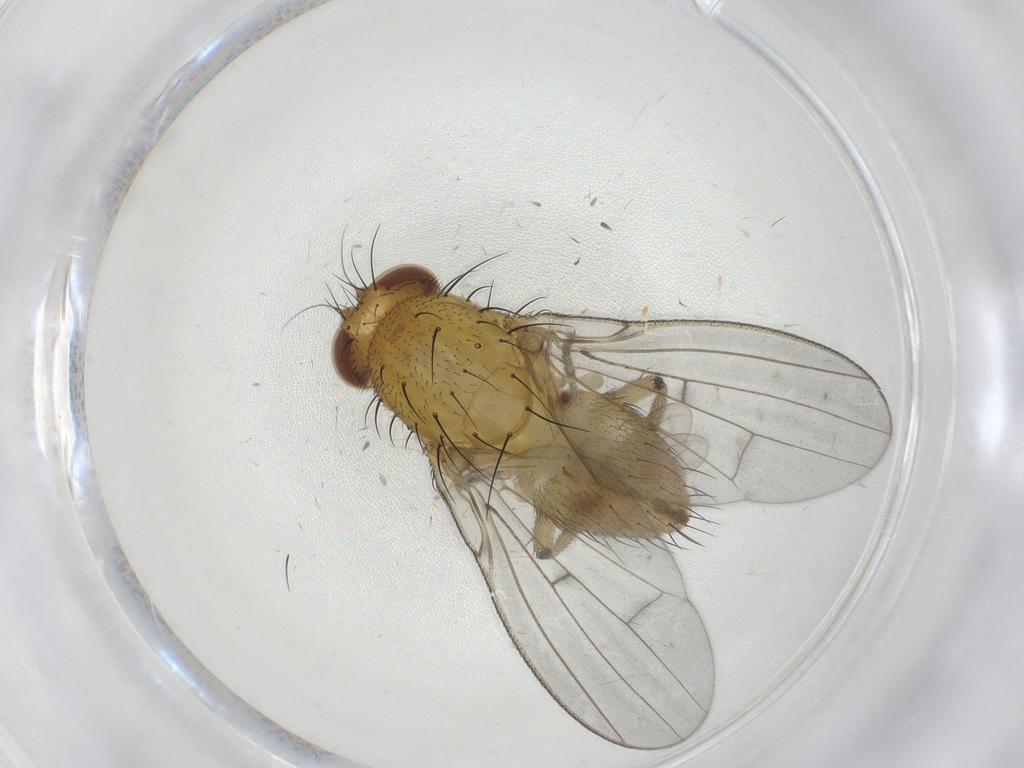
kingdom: Animalia
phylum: Arthropoda
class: Insecta
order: Diptera
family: Cecidomyiidae
